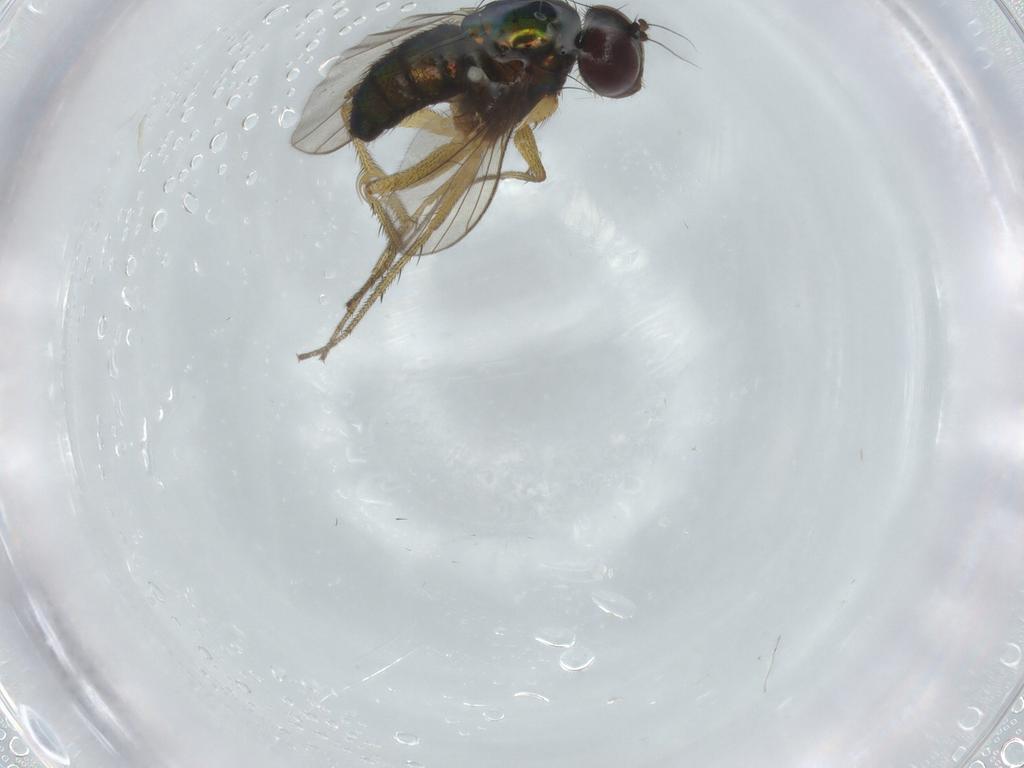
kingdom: Animalia
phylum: Arthropoda
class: Insecta
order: Diptera
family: Dolichopodidae
